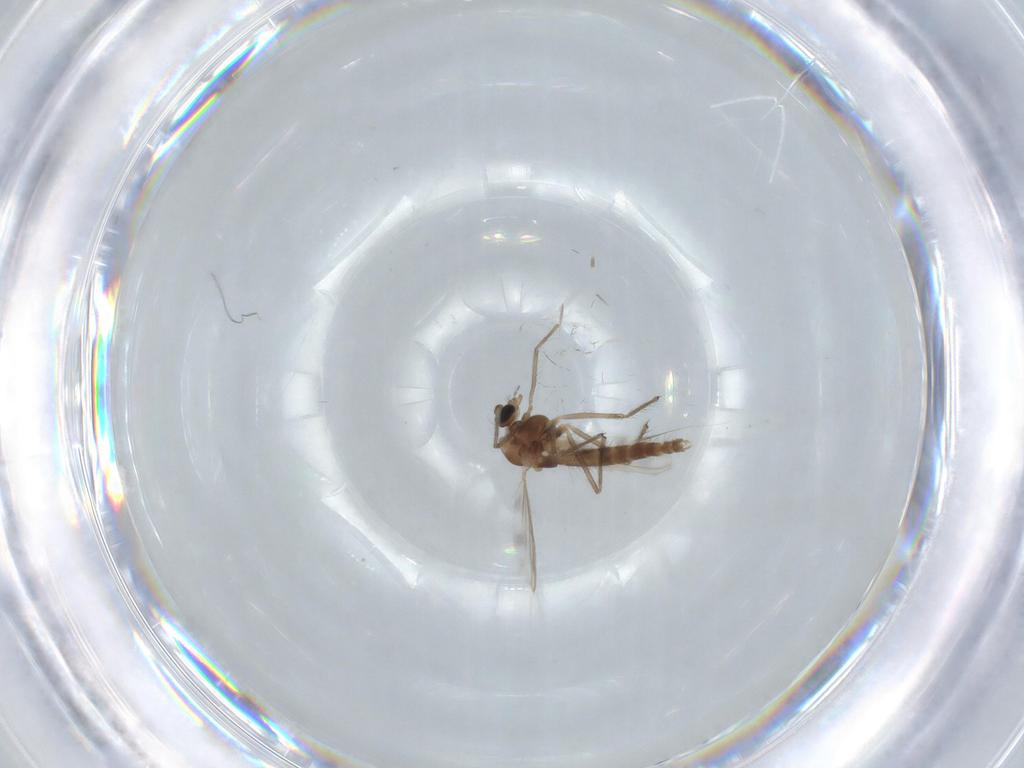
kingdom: Animalia
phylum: Arthropoda
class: Insecta
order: Diptera
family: Chironomidae
